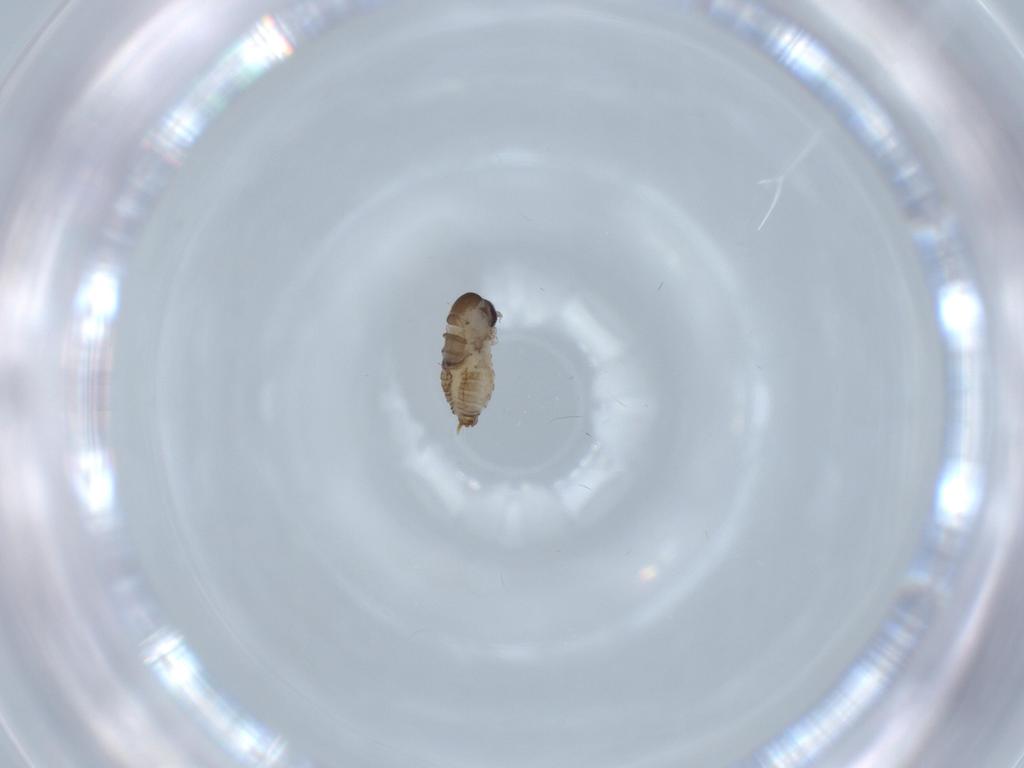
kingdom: Animalia
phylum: Arthropoda
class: Insecta
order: Diptera
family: Psychodidae
